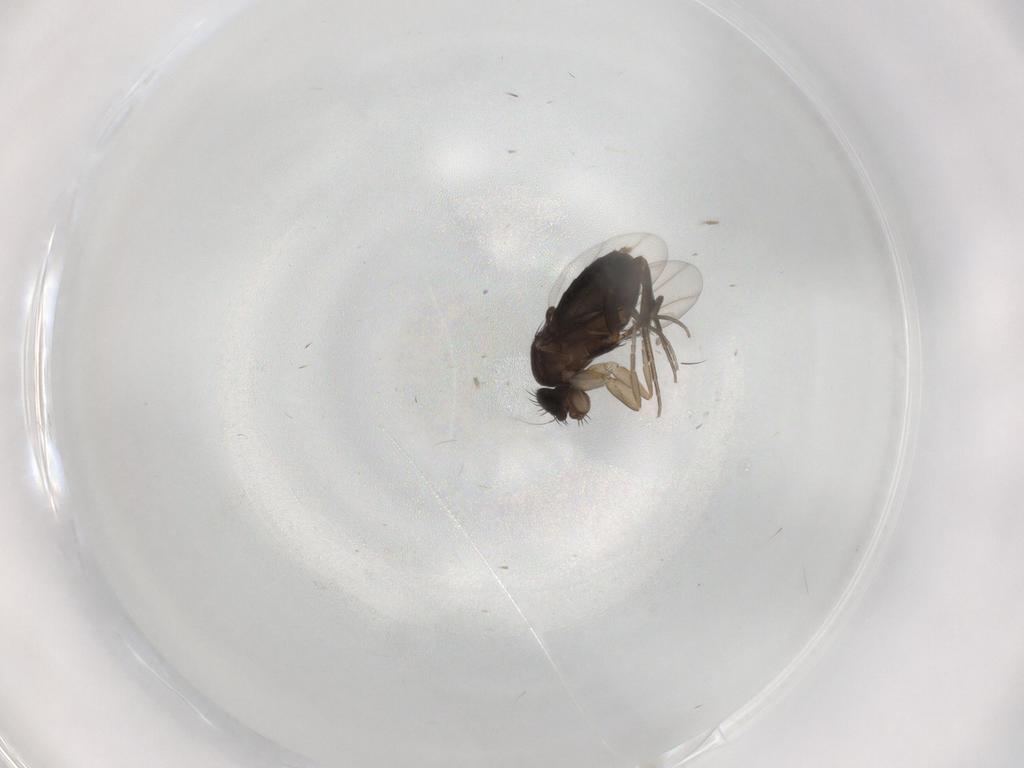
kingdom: Animalia
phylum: Arthropoda
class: Insecta
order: Diptera
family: Phoridae
